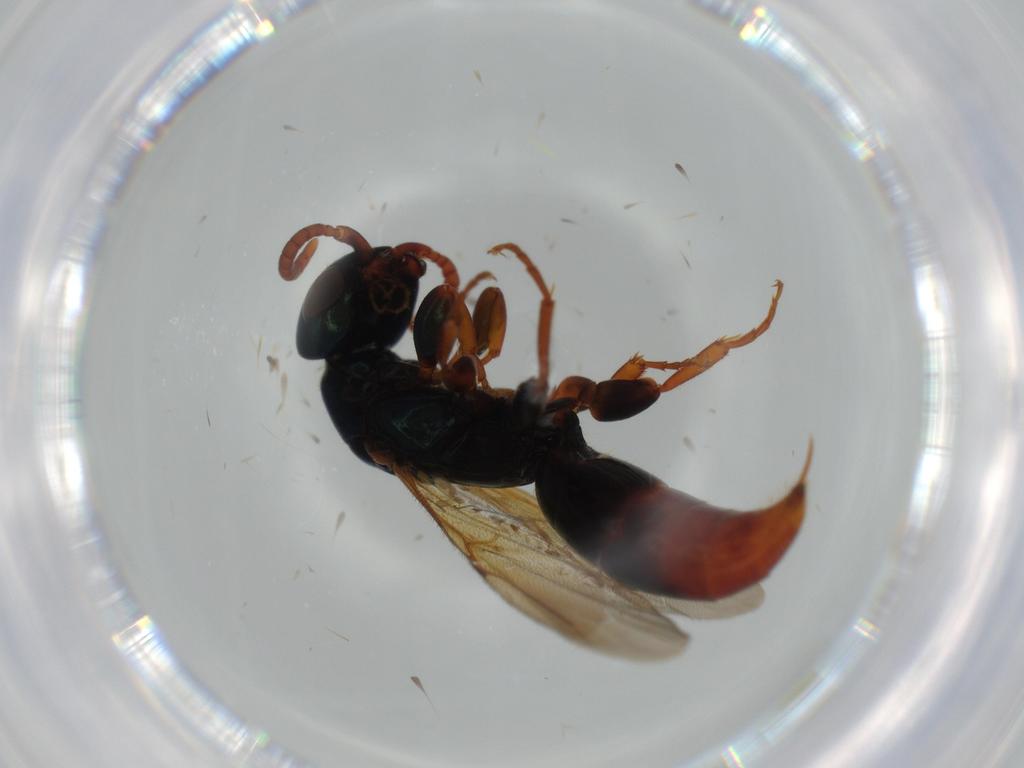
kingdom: Animalia
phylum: Arthropoda
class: Insecta
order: Hymenoptera
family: Bethylidae
